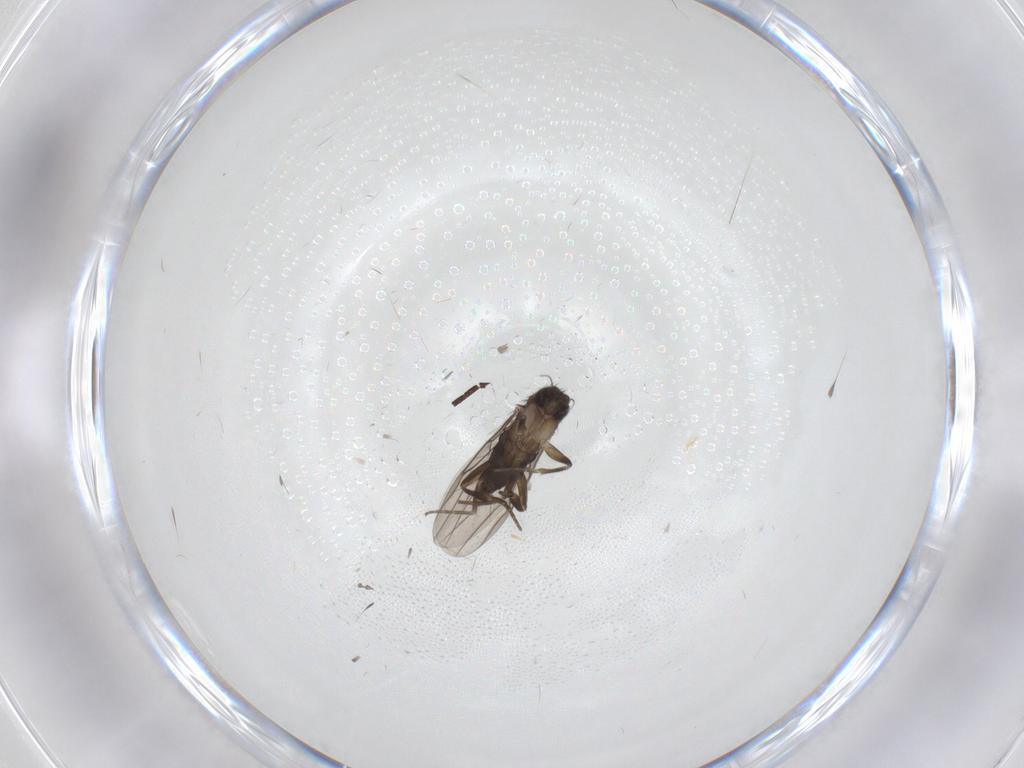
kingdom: Animalia
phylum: Arthropoda
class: Insecta
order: Diptera
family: Phoridae
